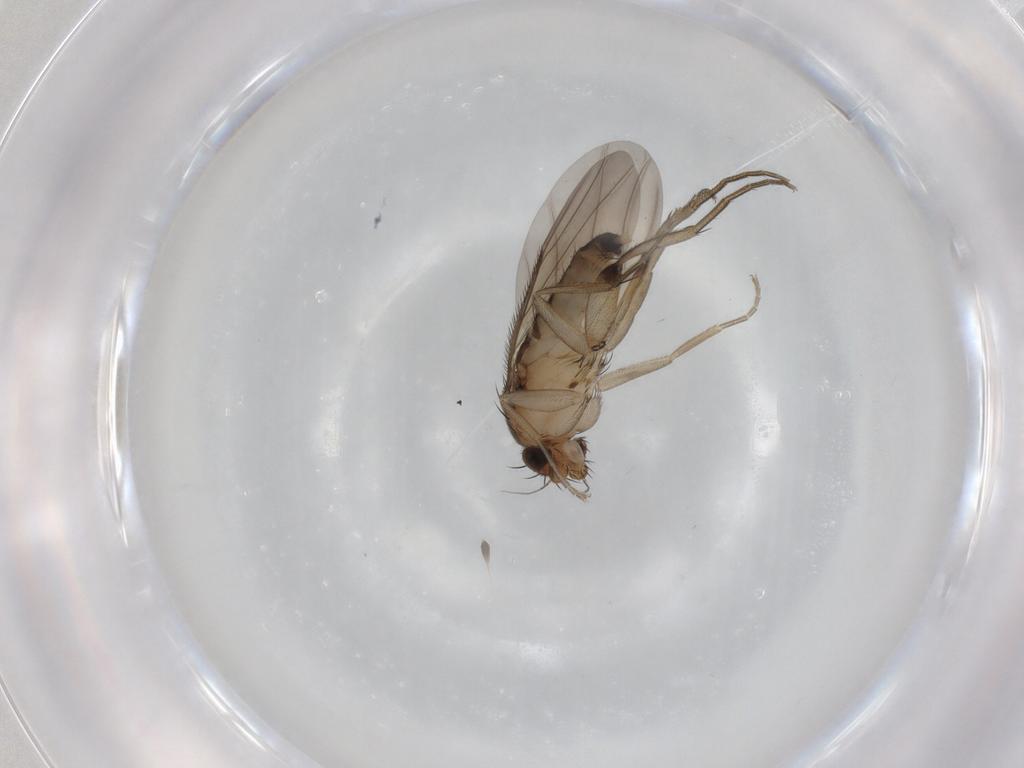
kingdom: Animalia
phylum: Arthropoda
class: Insecta
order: Diptera
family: Phoridae
